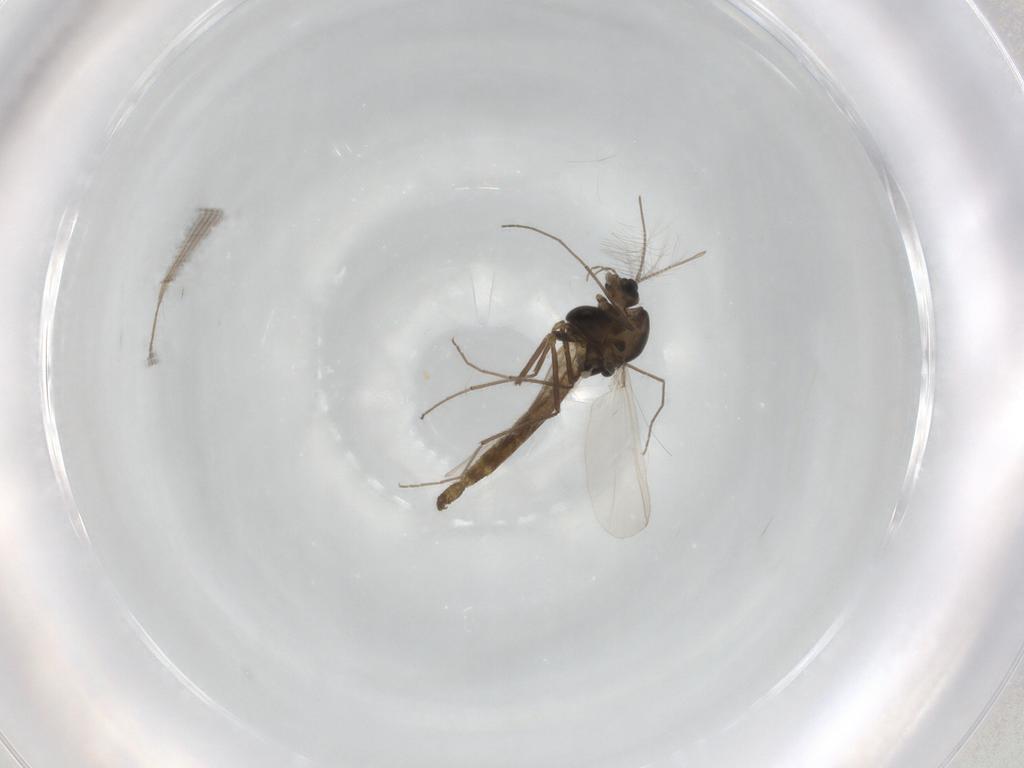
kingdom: Animalia
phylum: Arthropoda
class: Insecta
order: Diptera
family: Chironomidae
